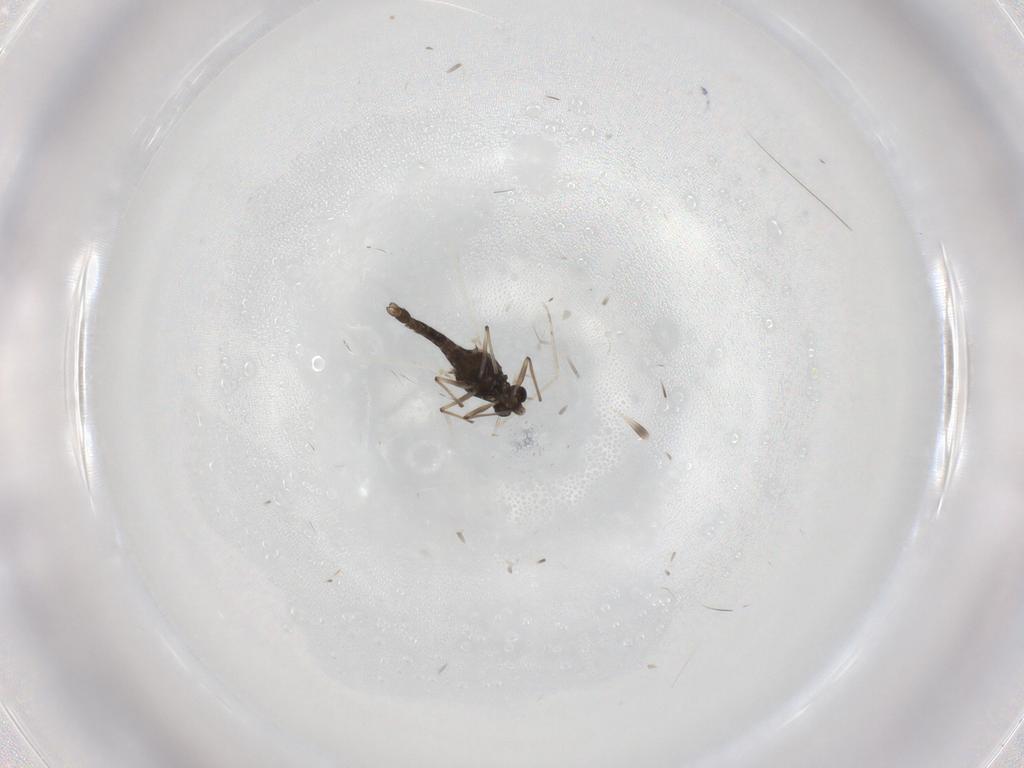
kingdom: Animalia
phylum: Arthropoda
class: Insecta
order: Diptera
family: Chironomidae
